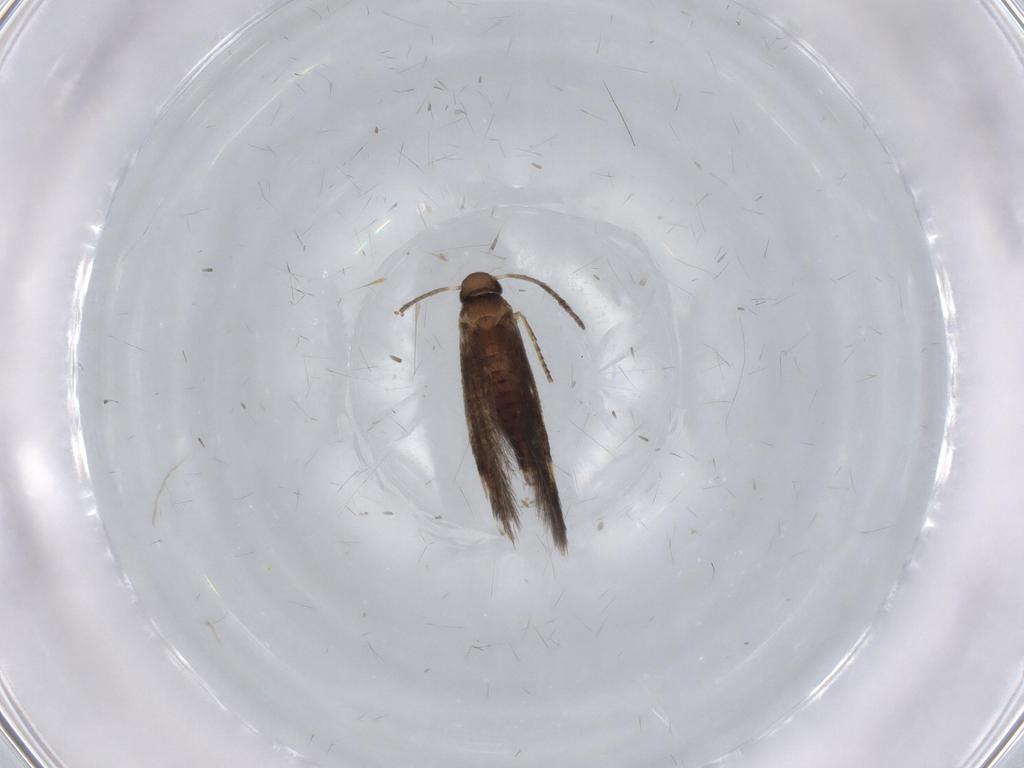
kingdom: Animalia
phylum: Arthropoda
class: Insecta
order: Lepidoptera
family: Heliozelidae
